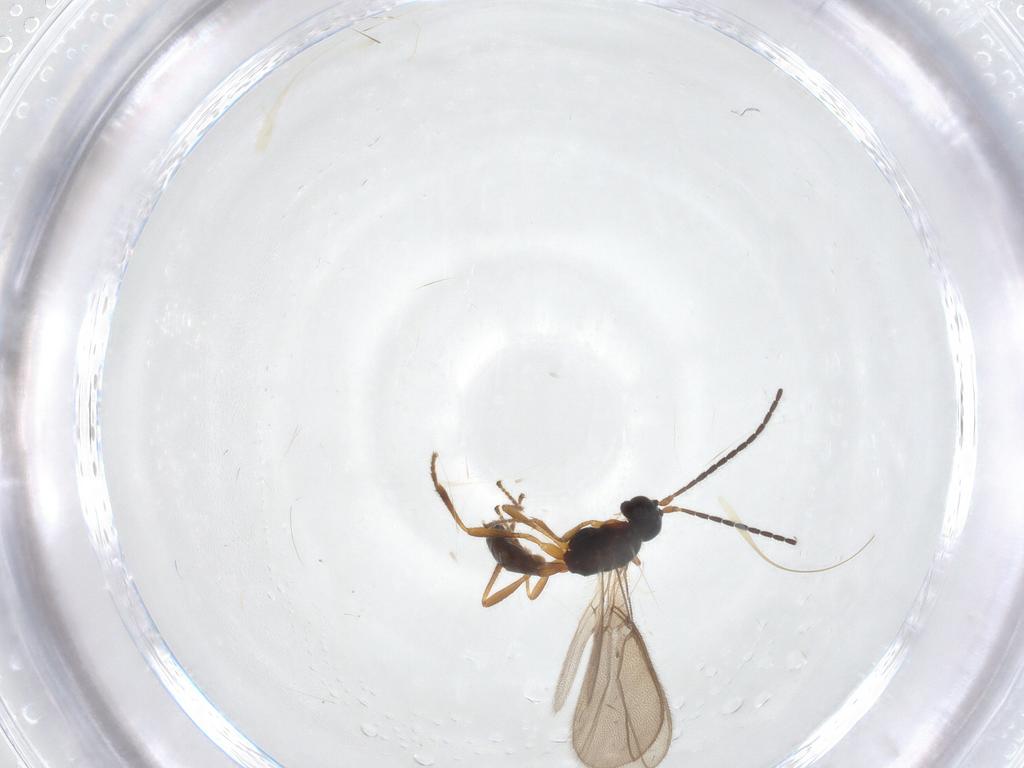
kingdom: Animalia
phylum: Arthropoda
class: Insecta
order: Hymenoptera
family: Braconidae
